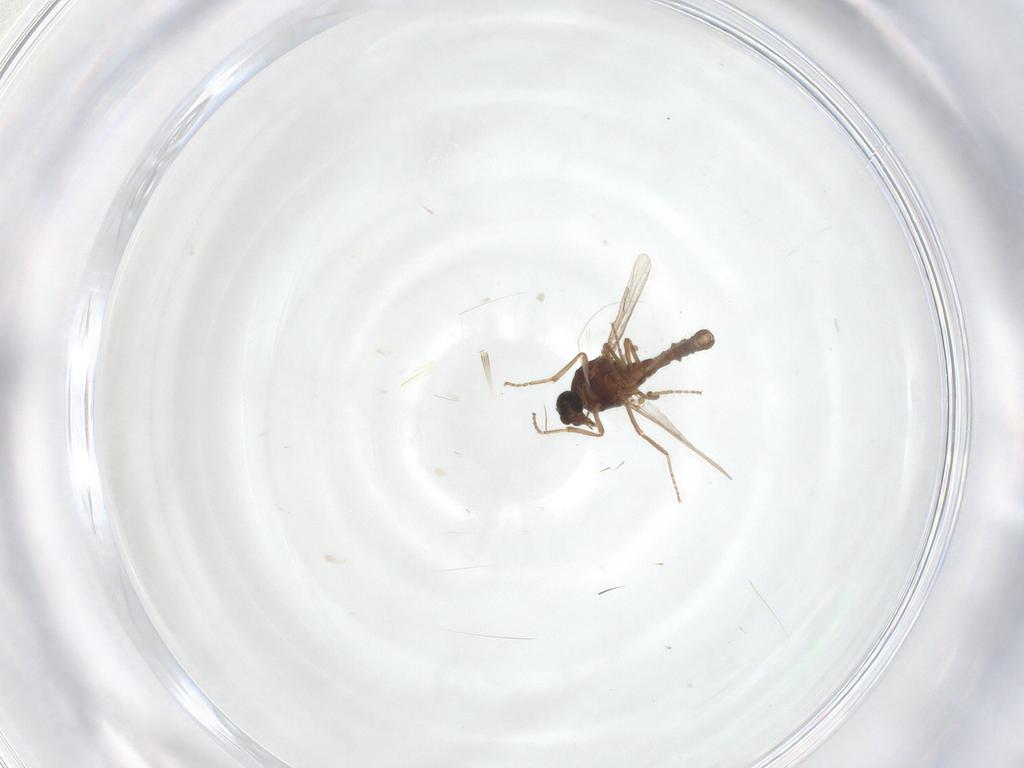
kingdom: Animalia
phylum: Arthropoda
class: Insecta
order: Diptera
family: Ceratopogonidae
